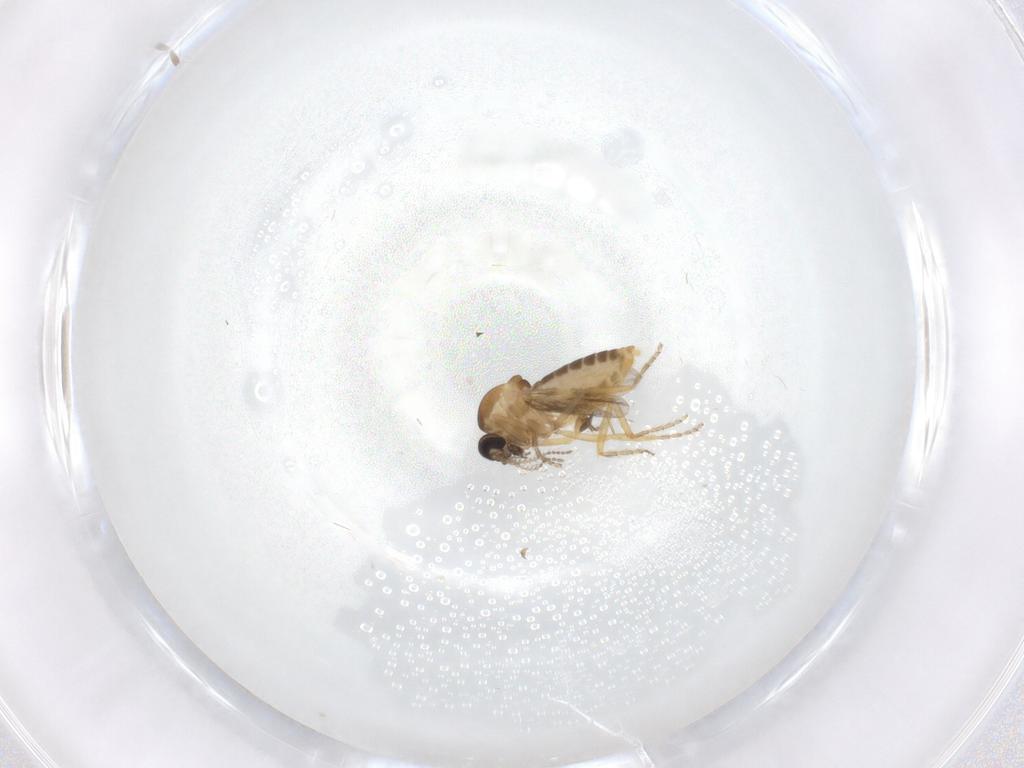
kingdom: Animalia
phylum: Arthropoda
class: Insecta
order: Diptera
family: Ceratopogonidae
